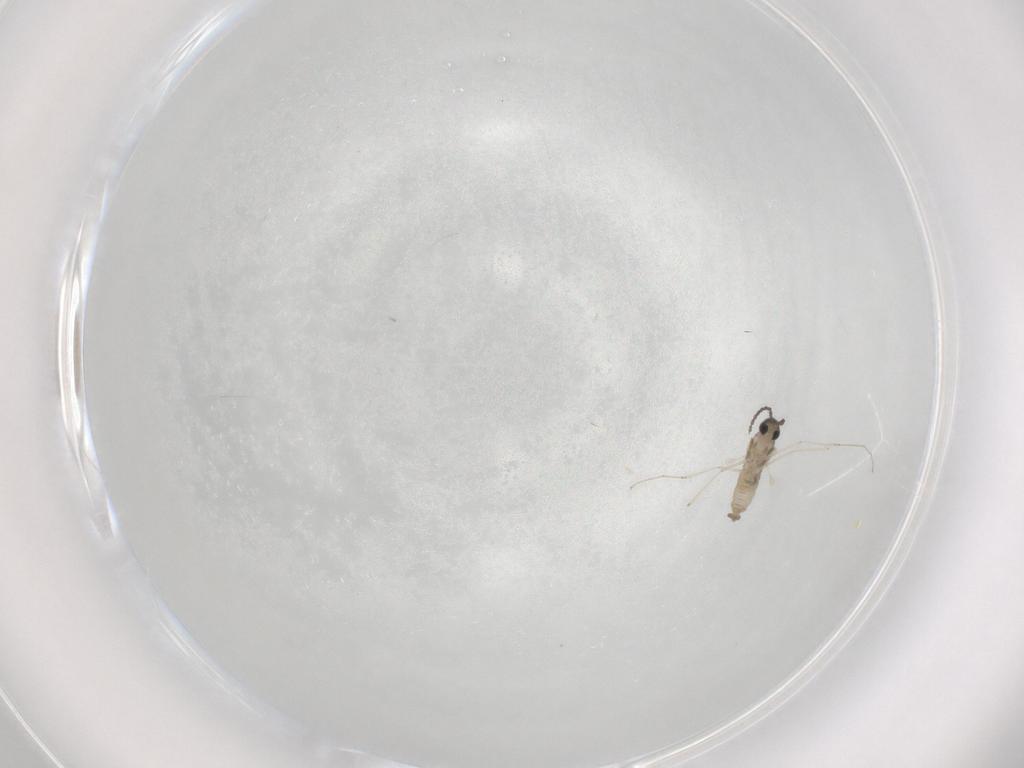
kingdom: Animalia
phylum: Arthropoda
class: Insecta
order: Diptera
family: Cecidomyiidae
